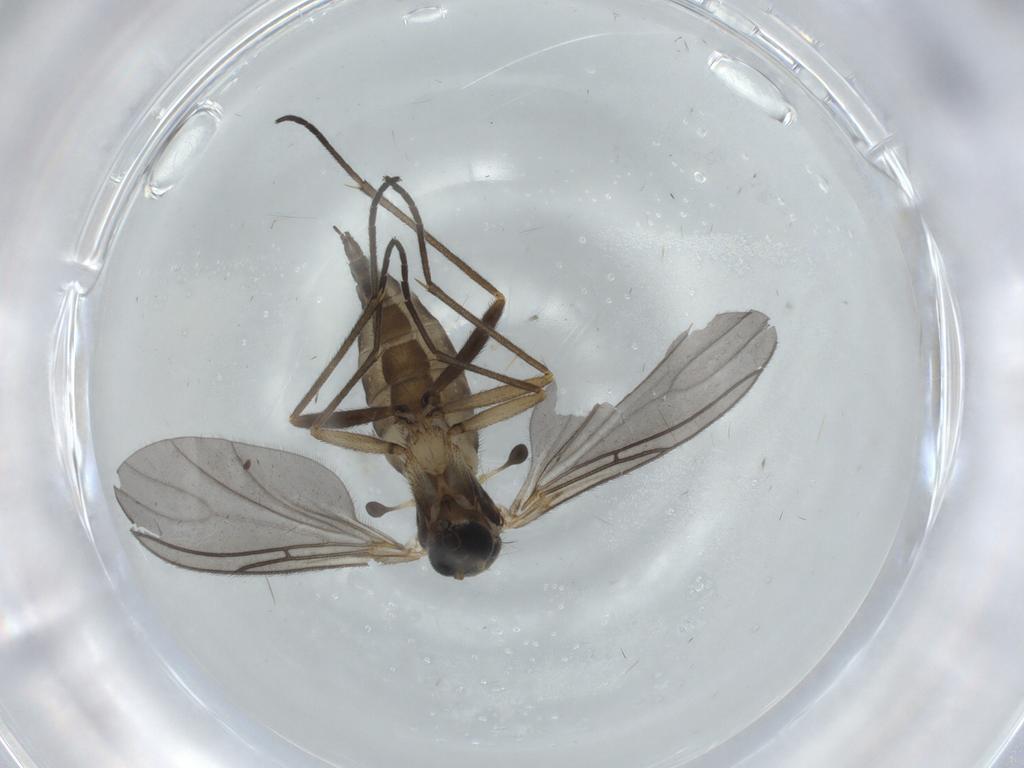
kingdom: Animalia
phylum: Arthropoda
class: Insecta
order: Diptera
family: Sciaridae
